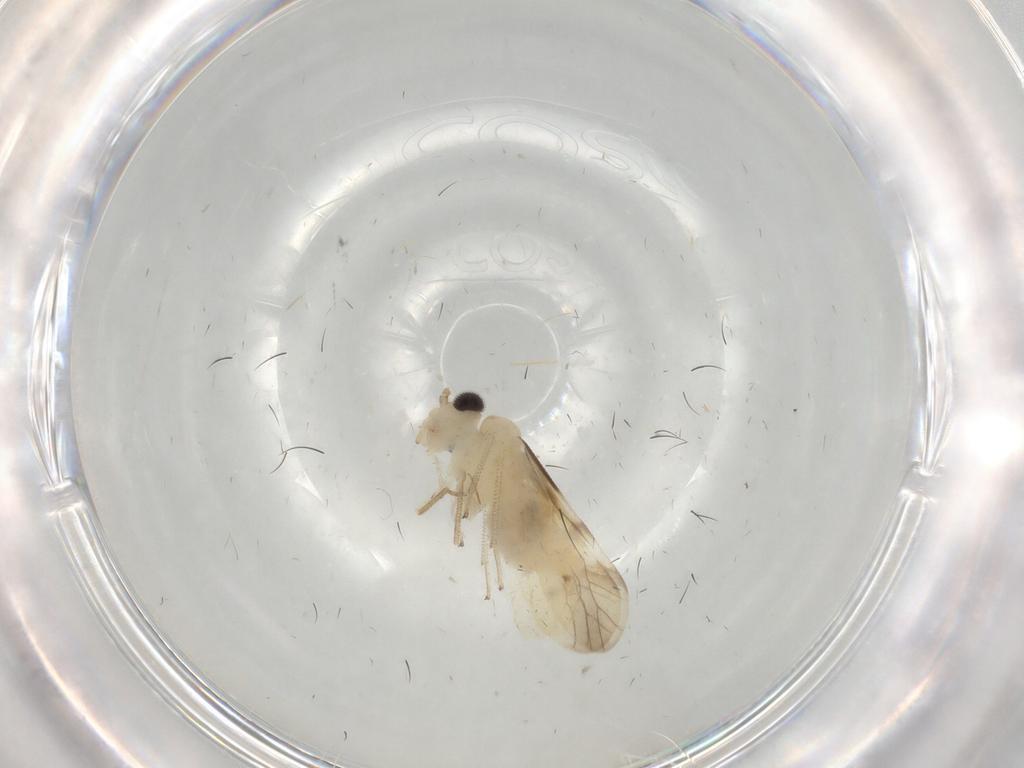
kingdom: Animalia
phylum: Arthropoda
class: Insecta
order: Psocodea
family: Caeciliusidae
